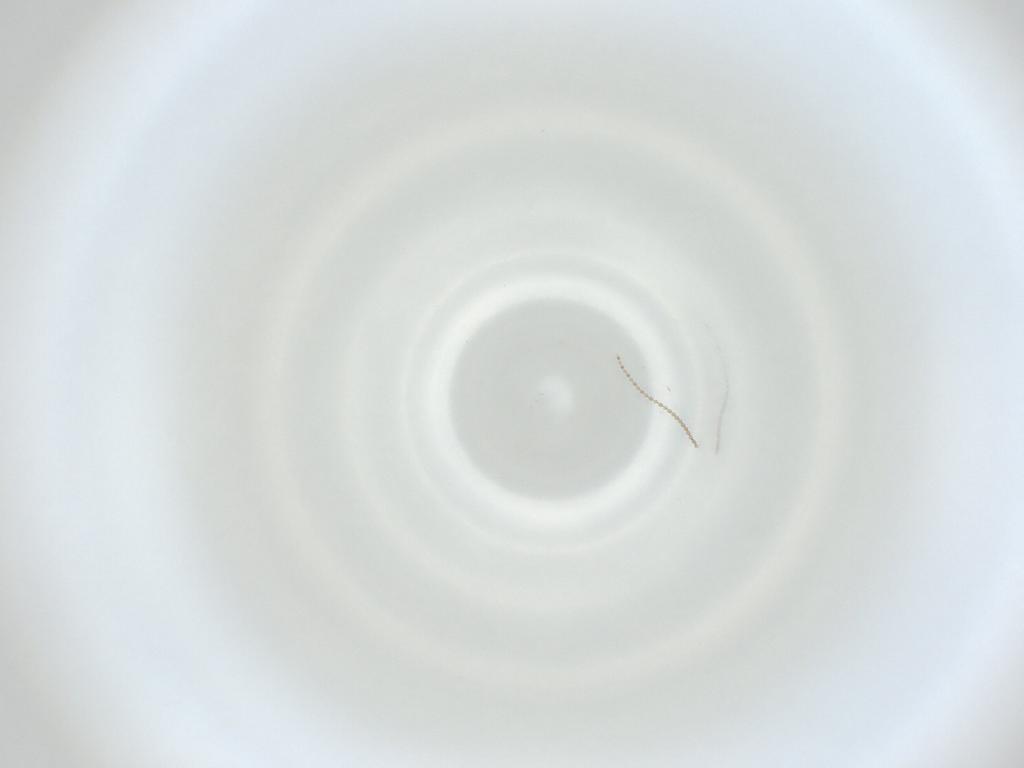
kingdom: Animalia
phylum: Arthropoda
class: Insecta
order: Diptera
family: Cecidomyiidae
